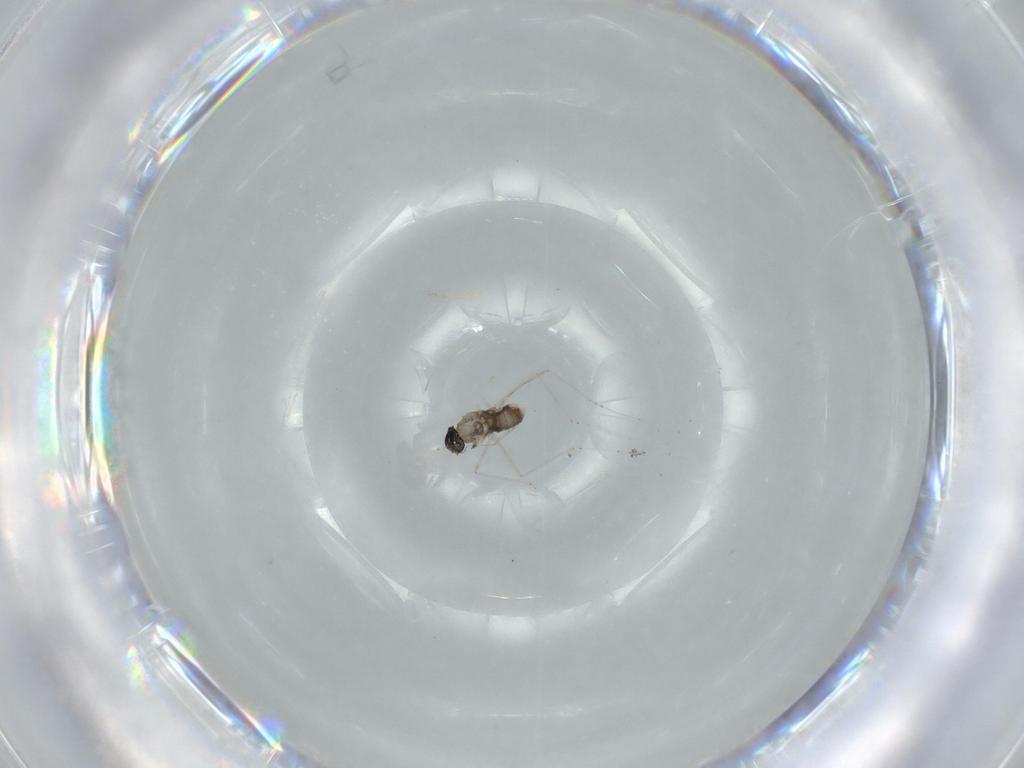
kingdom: Animalia
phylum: Arthropoda
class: Insecta
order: Diptera
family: Cecidomyiidae
